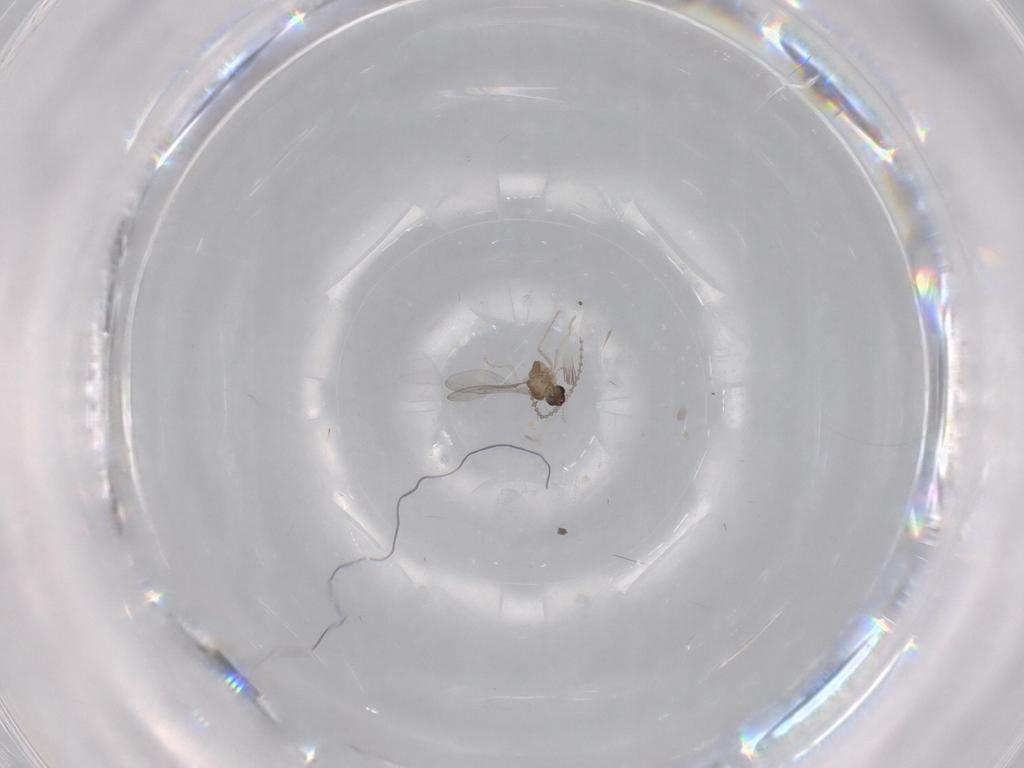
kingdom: Animalia
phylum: Arthropoda
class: Insecta
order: Diptera
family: Cecidomyiidae
